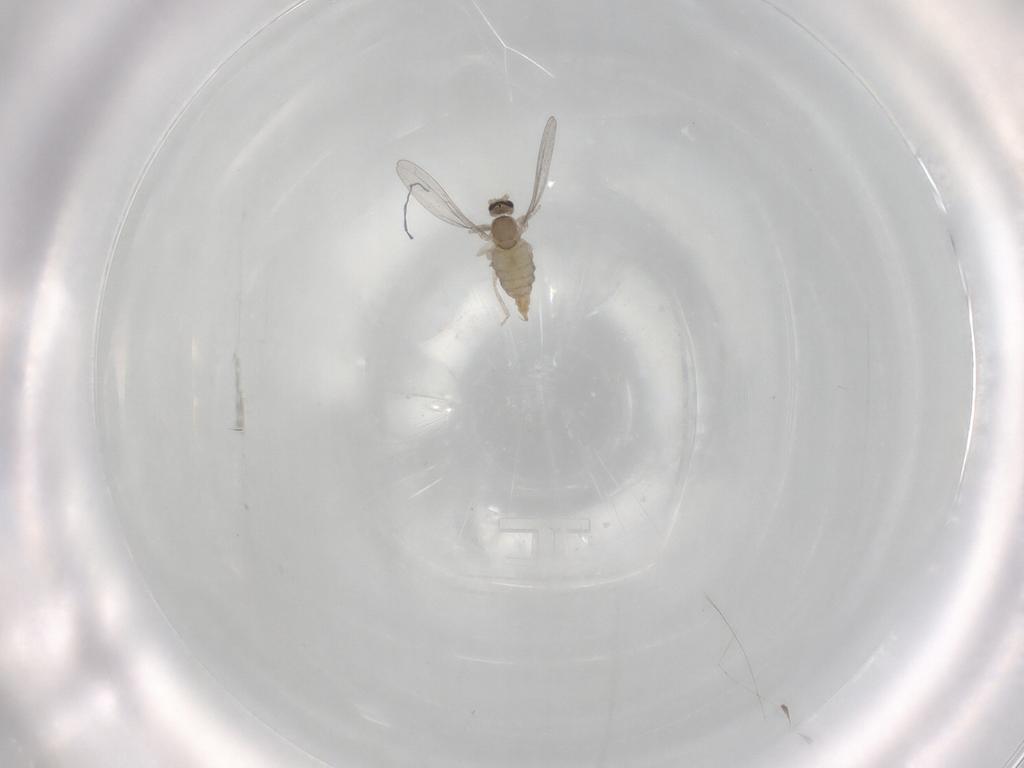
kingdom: Animalia
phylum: Arthropoda
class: Insecta
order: Diptera
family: Cecidomyiidae
